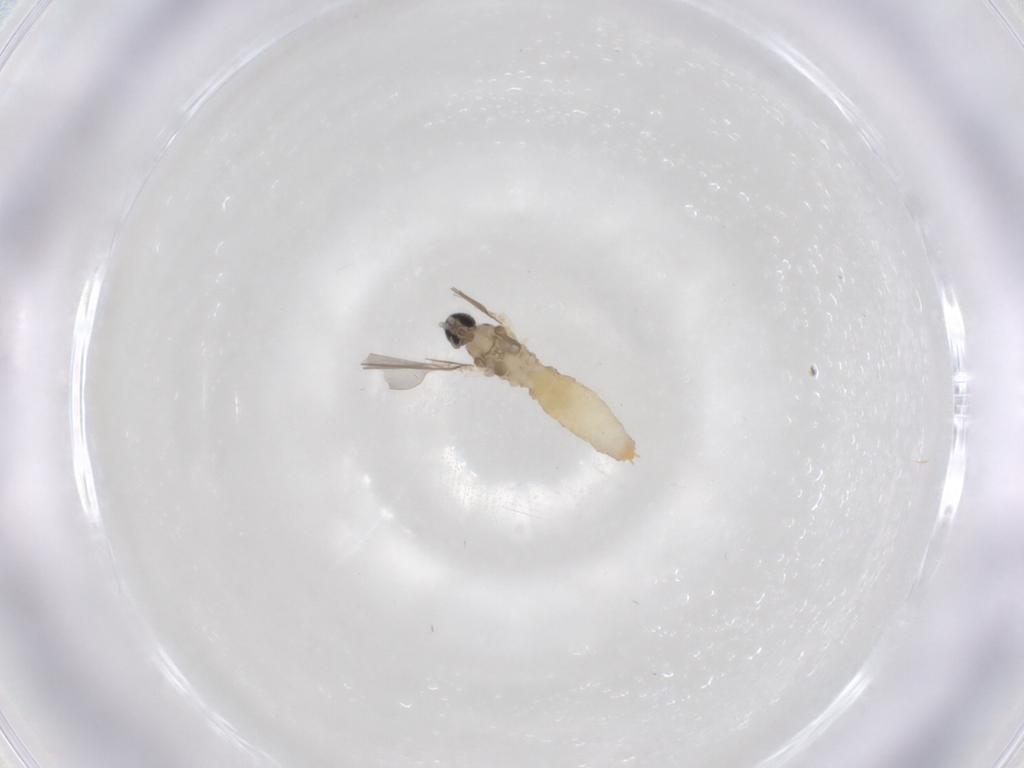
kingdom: Animalia
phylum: Arthropoda
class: Insecta
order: Diptera
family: Cecidomyiidae
